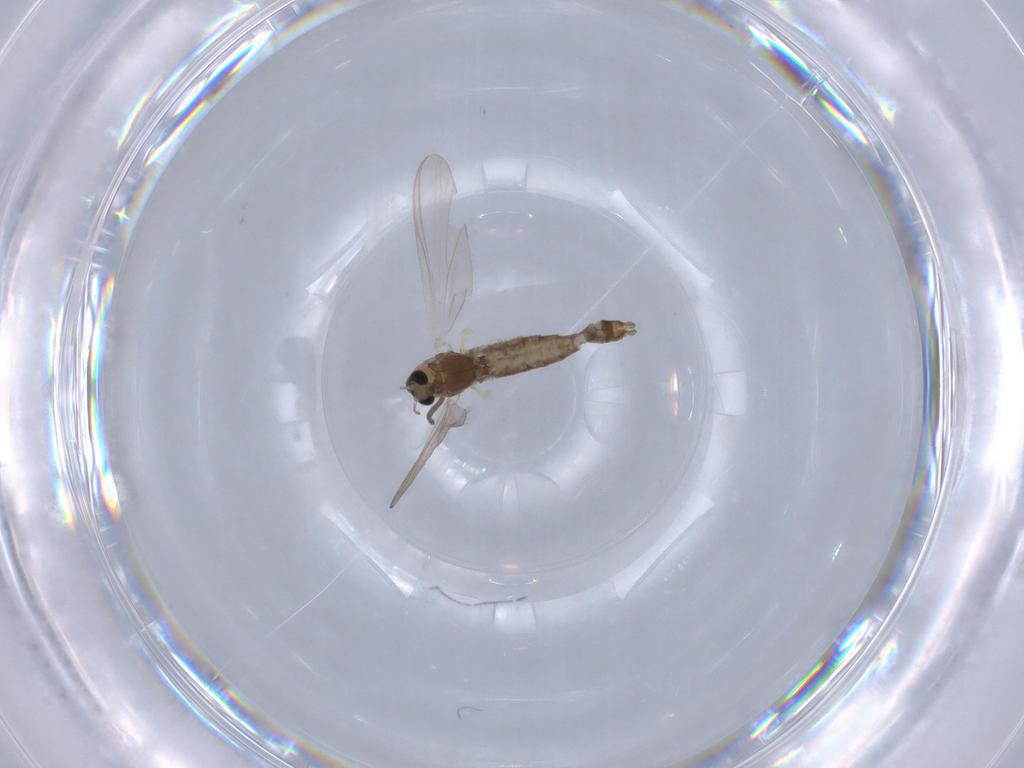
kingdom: Animalia
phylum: Arthropoda
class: Insecta
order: Diptera
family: Chironomidae
